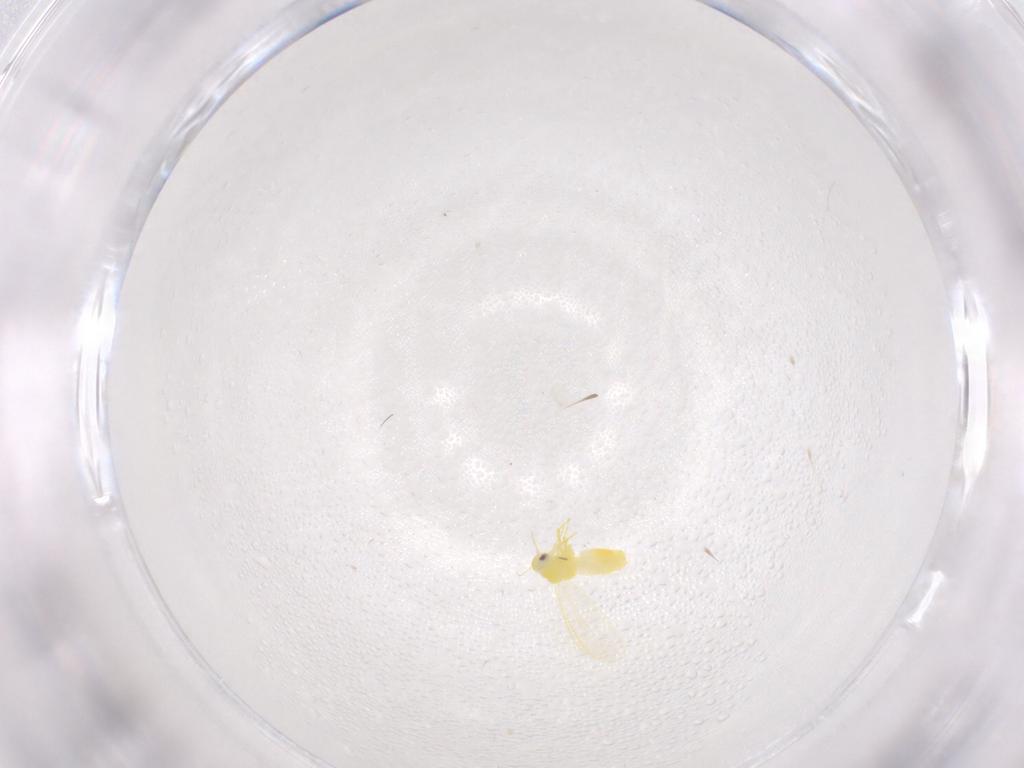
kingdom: Animalia
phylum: Arthropoda
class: Insecta
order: Hemiptera
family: Aleyrodidae
